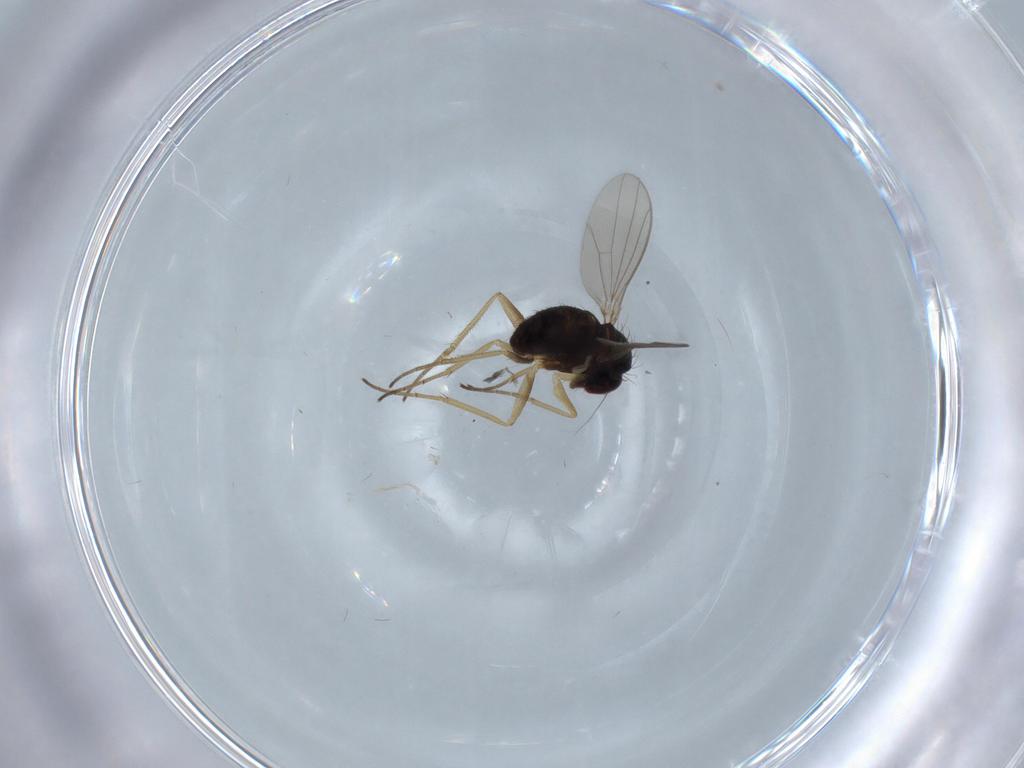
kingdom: Animalia
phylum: Arthropoda
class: Insecta
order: Diptera
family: Dolichopodidae
